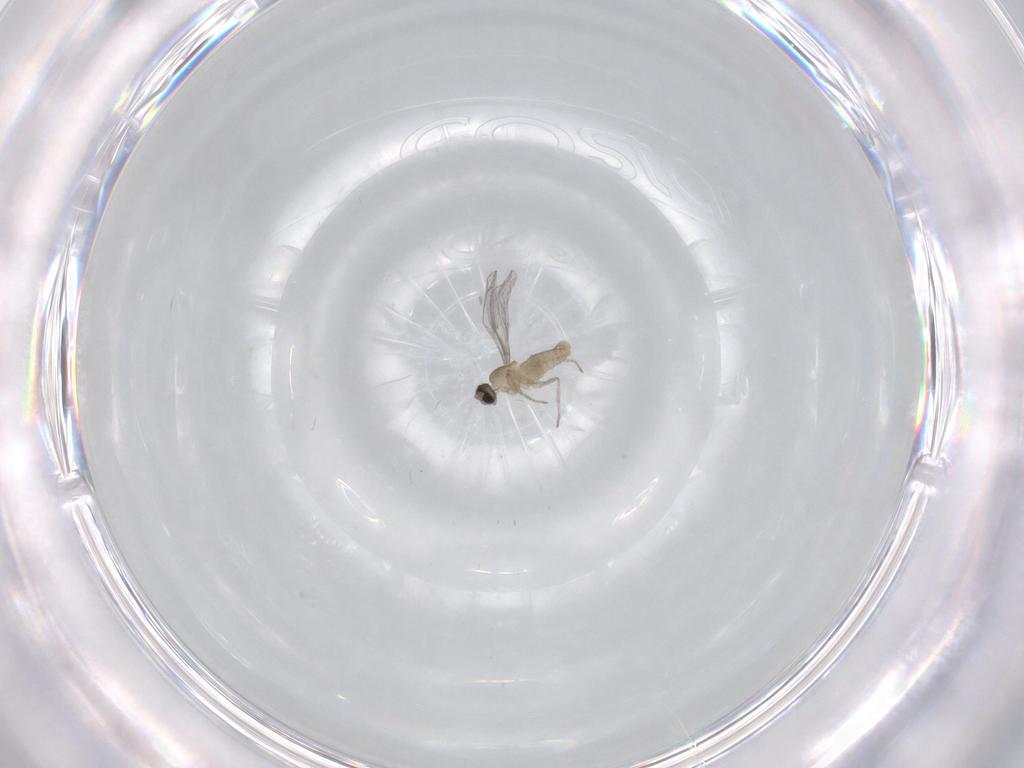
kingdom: Animalia
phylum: Arthropoda
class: Insecta
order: Diptera
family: Cecidomyiidae
